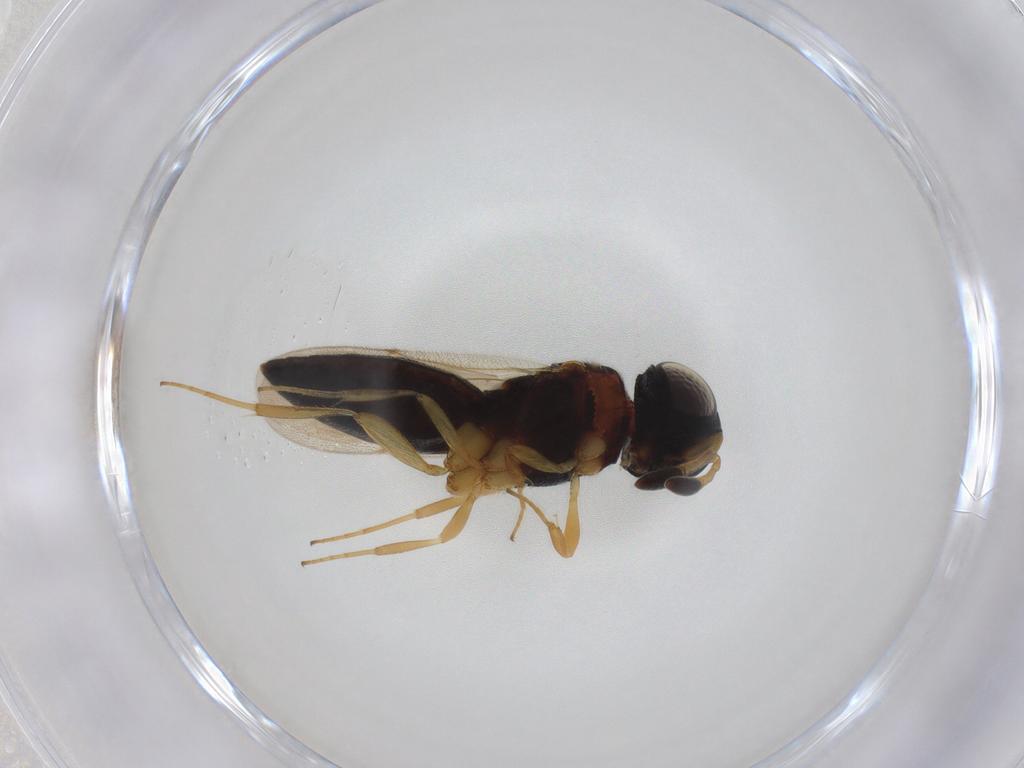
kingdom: Animalia
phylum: Arthropoda
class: Insecta
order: Hymenoptera
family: Scelionidae
